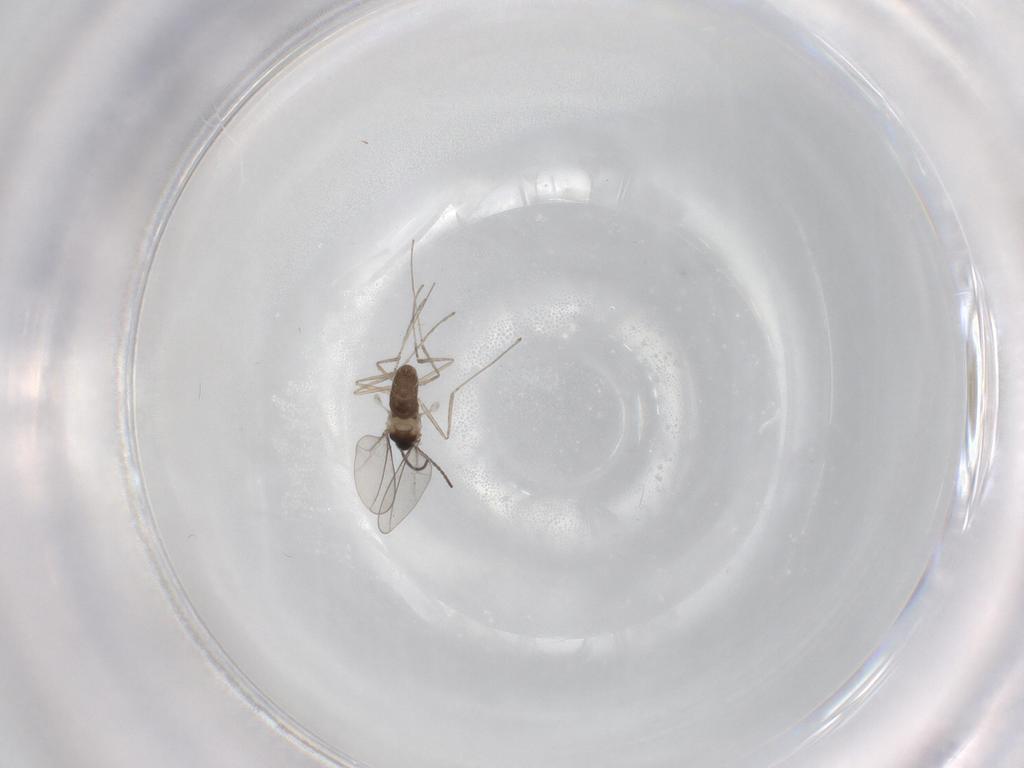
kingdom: Animalia
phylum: Arthropoda
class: Insecta
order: Diptera
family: Cecidomyiidae
